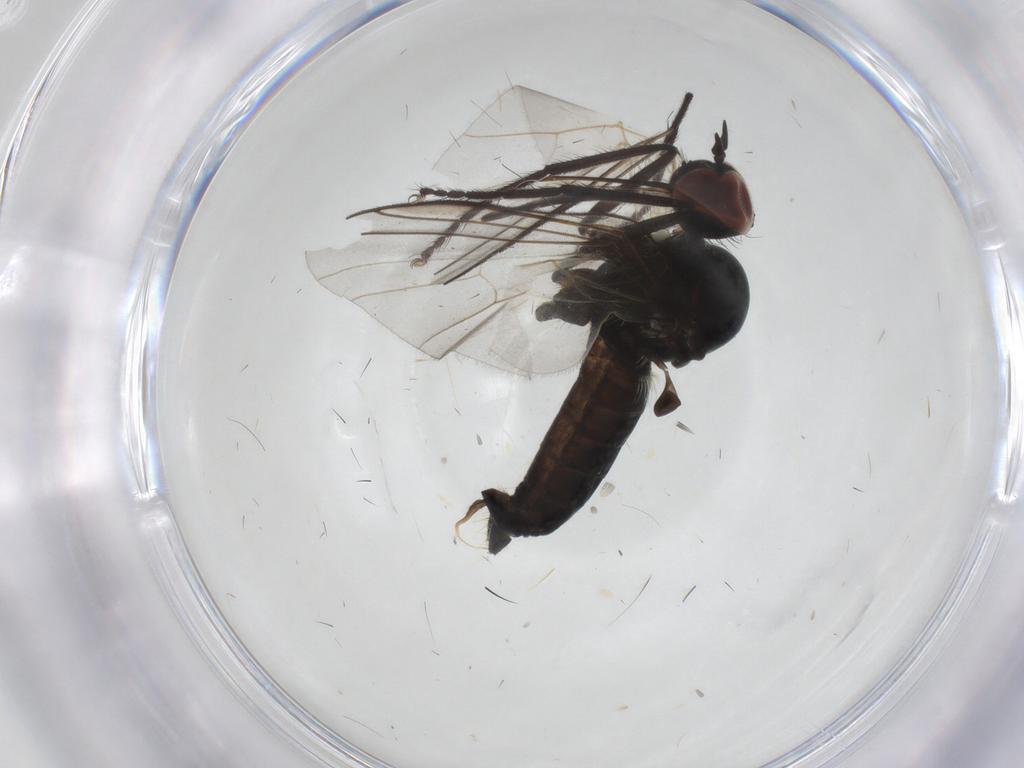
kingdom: Animalia
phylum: Arthropoda
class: Insecta
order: Diptera
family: Empididae
